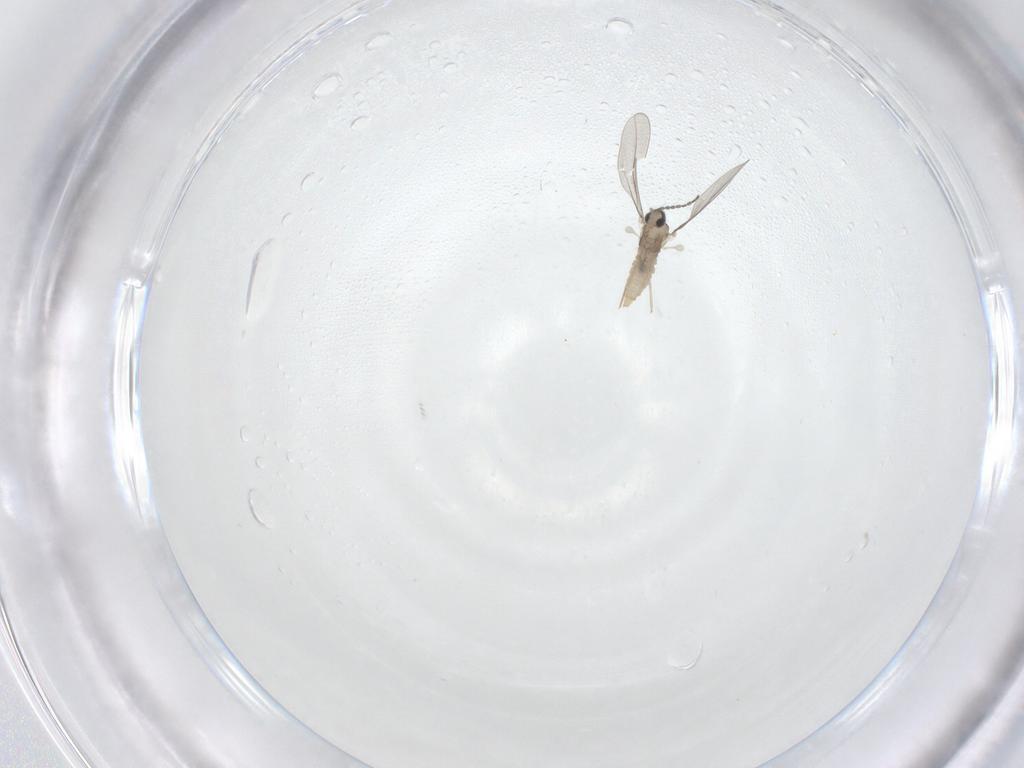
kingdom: Animalia
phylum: Arthropoda
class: Insecta
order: Diptera
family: Cecidomyiidae
